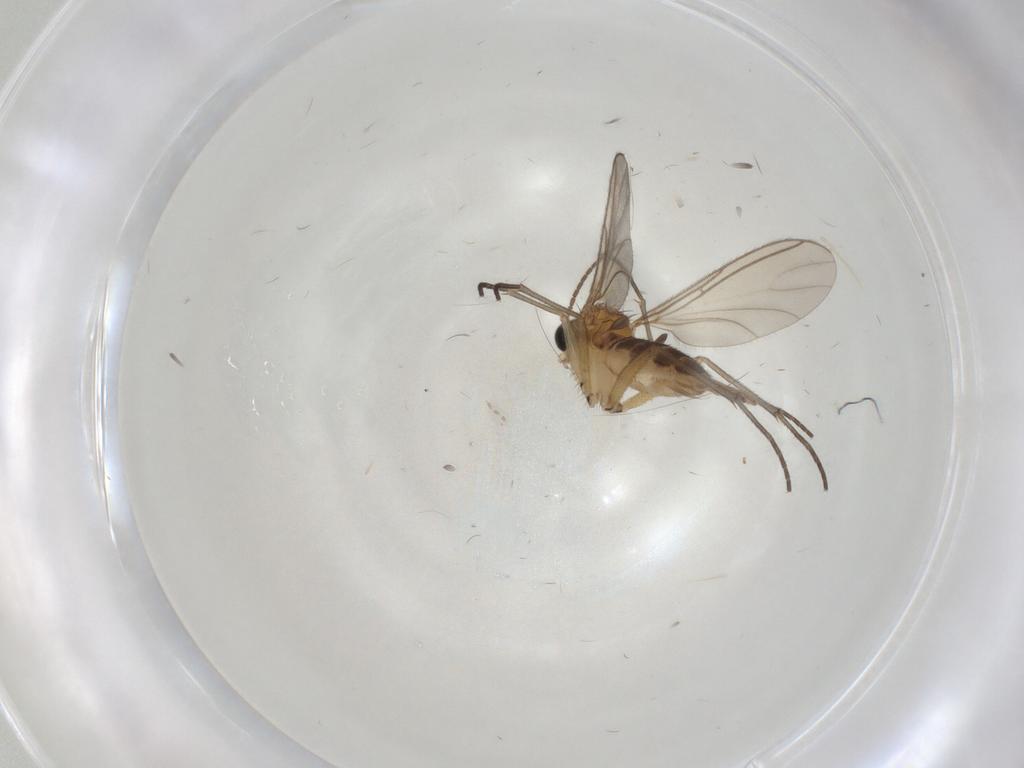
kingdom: Animalia
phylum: Arthropoda
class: Insecta
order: Diptera
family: Cecidomyiidae
